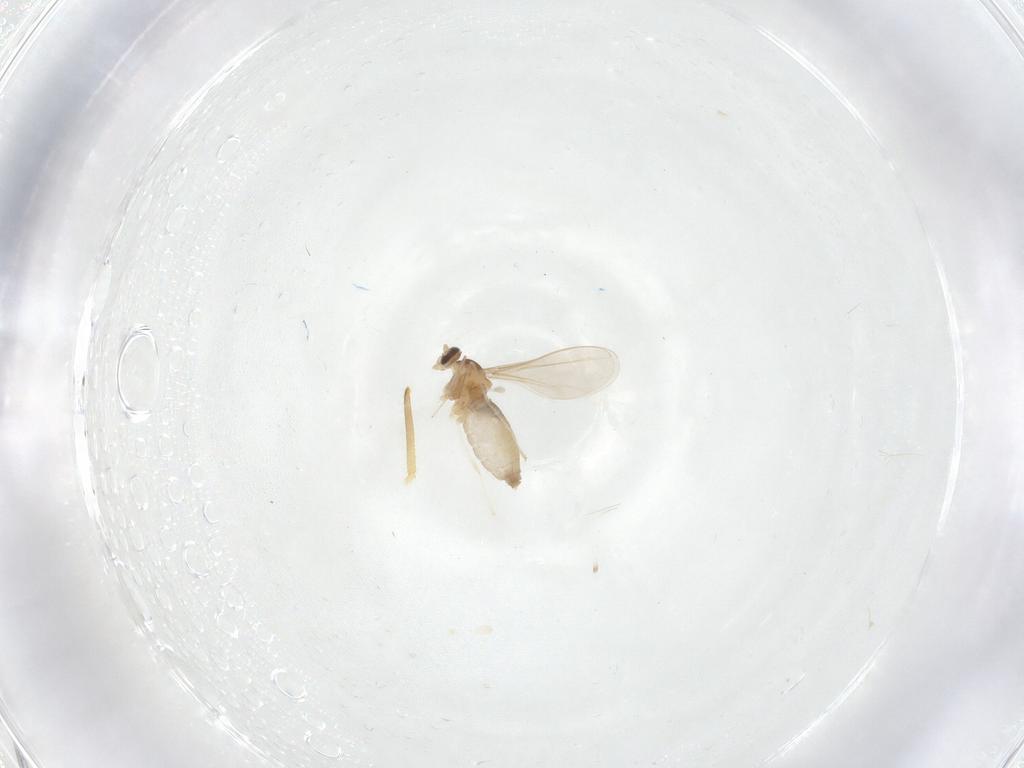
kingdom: Animalia
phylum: Arthropoda
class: Insecta
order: Diptera
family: Cecidomyiidae
